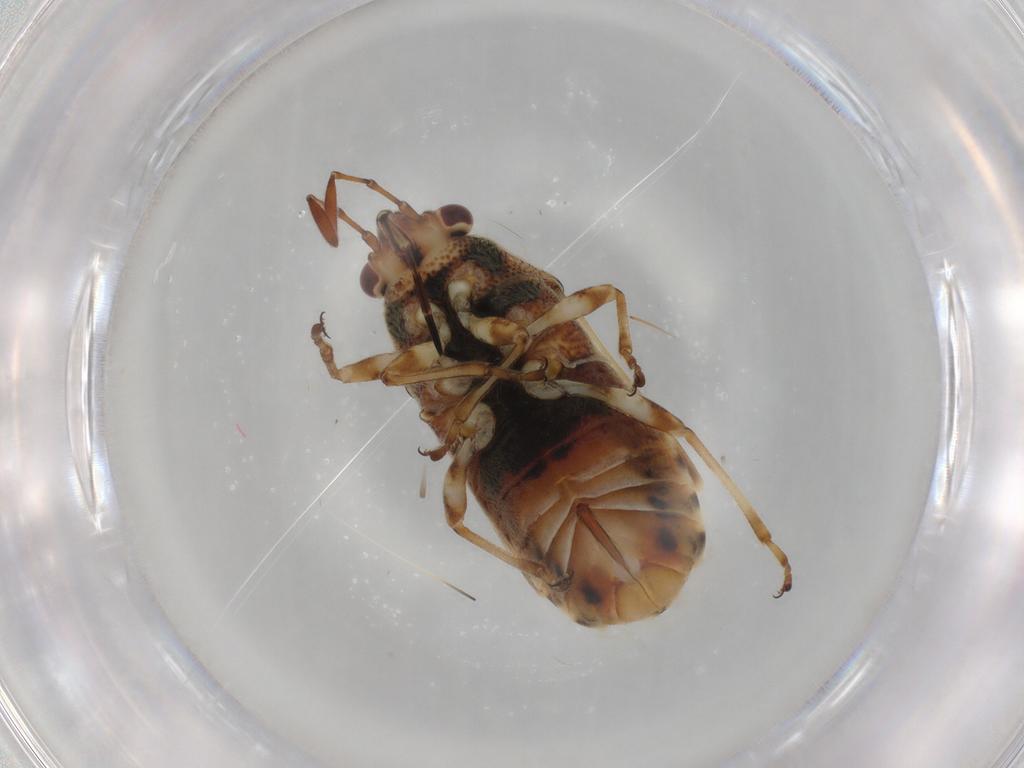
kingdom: Animalia
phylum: Arthropoda
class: Insecta
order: Hemiptera
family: Lygaeidae
